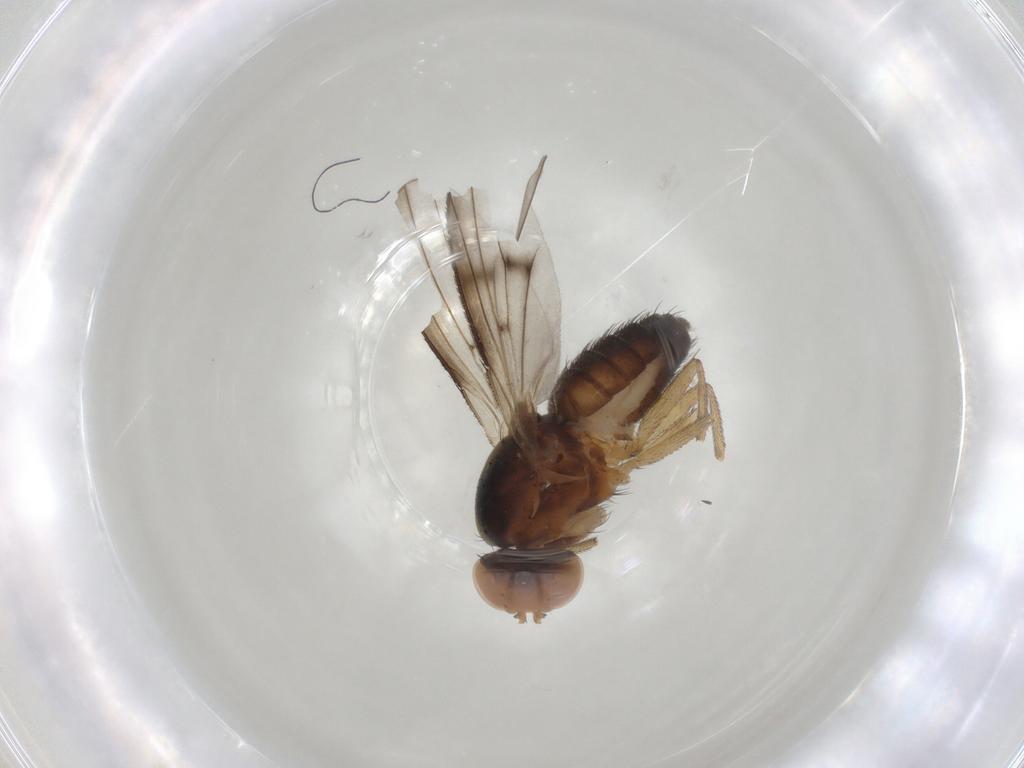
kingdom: Animalia
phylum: Arthropoda
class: Insecta
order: Diptera
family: Heleomyzidae
